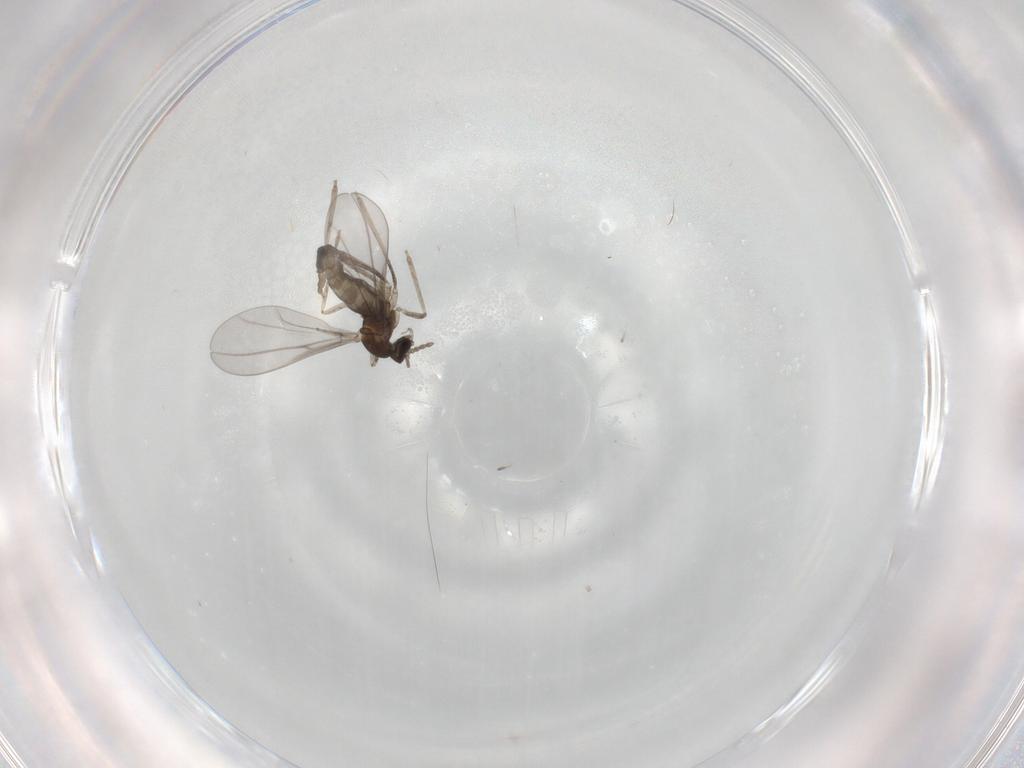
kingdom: Animalia
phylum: Arthropoda
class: Insecta
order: Diptera
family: Cecidomyiidae
